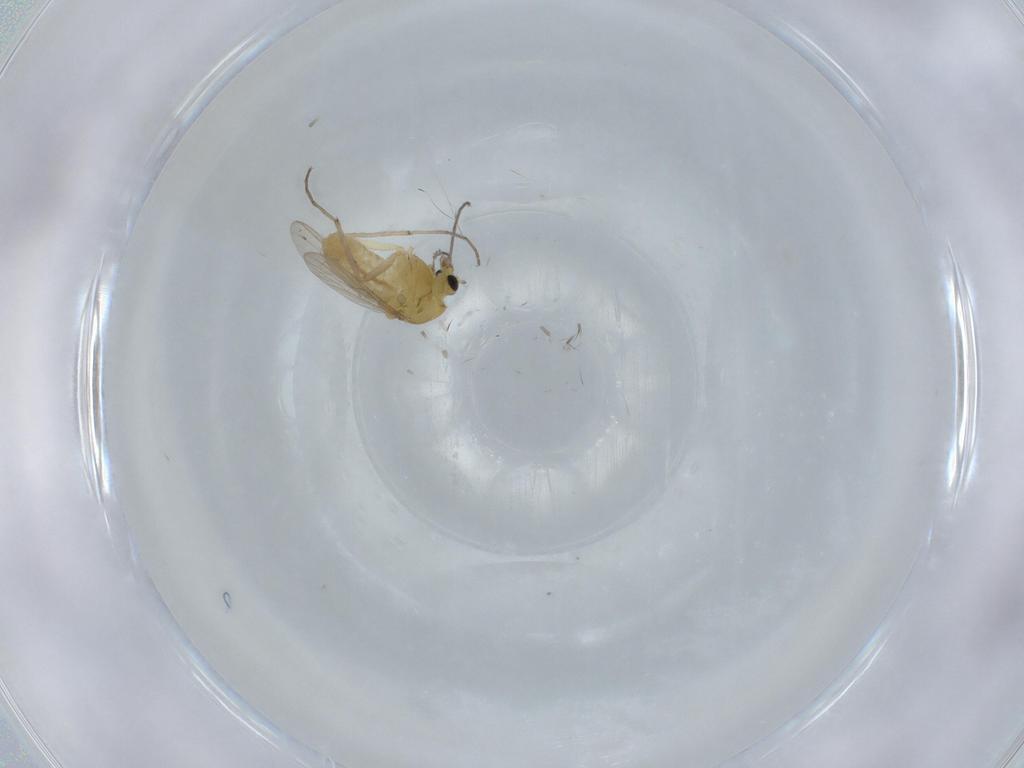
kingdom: Animalia
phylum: Arthropoda
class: Insecta
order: Diptera
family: Chironomidae
